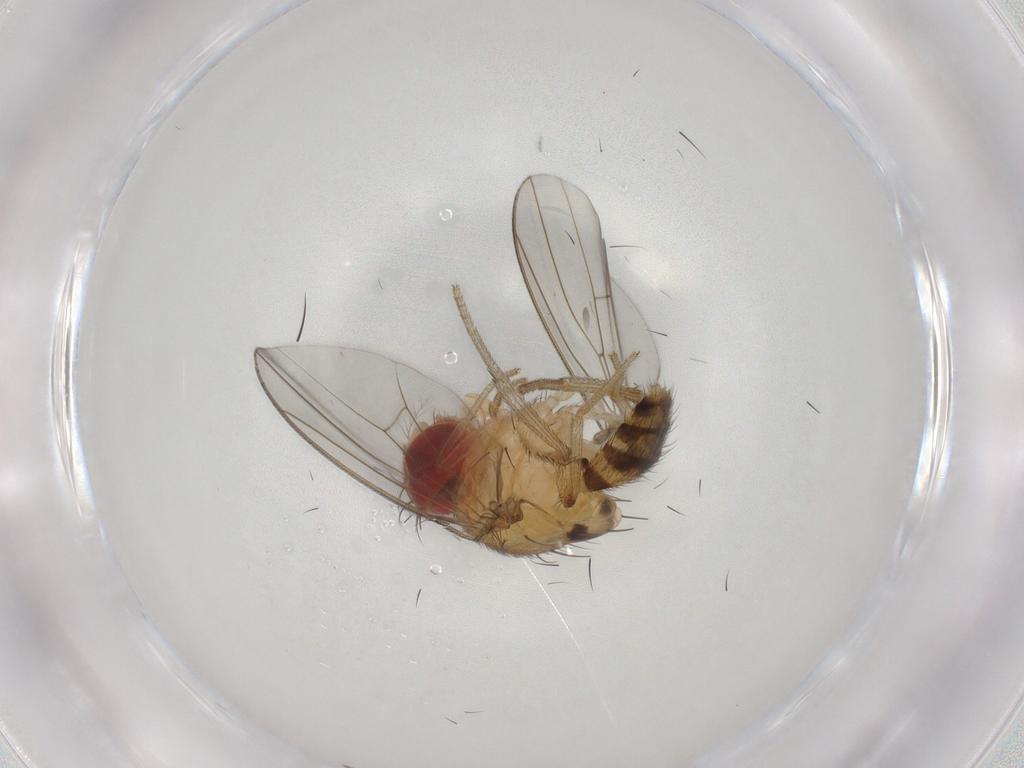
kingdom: Animalia
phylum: Arthropoda
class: Insecta
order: Diptera
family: Drosophilidae
